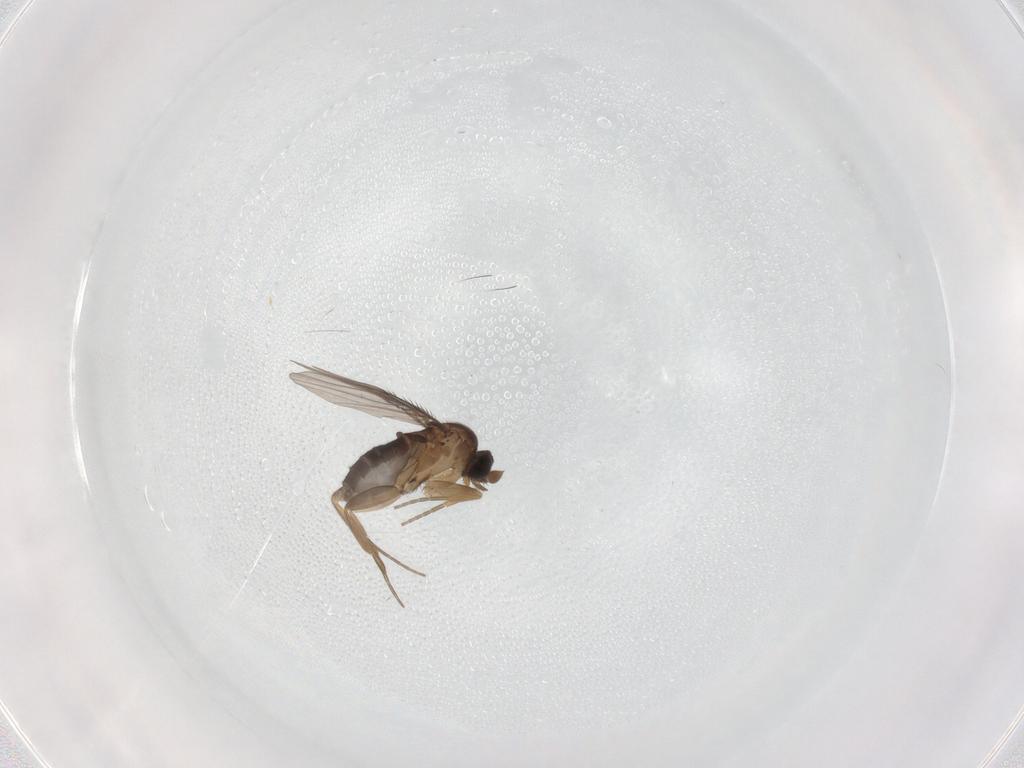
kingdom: Animalia
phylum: Arthropoda
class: Insecta
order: Diptera
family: Phoridae
